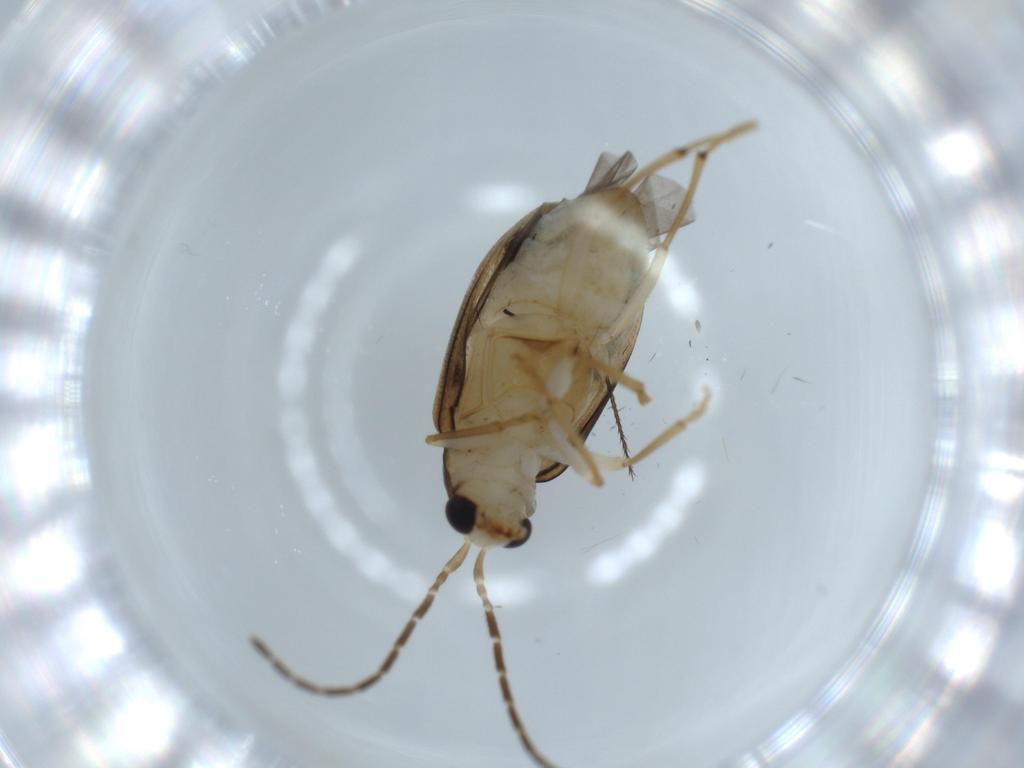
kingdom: Animalia
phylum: Arthropoda
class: Insecta
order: Coleoptera
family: Chrysomelidae
